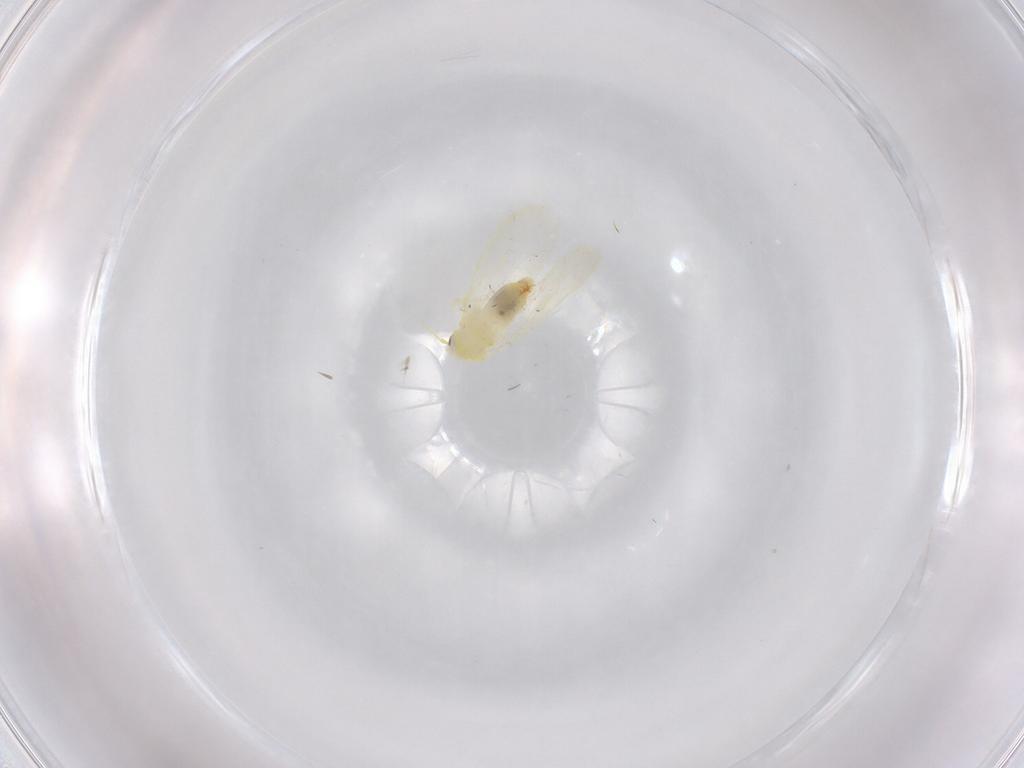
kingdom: Animalia
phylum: Arthropoda
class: Insecta
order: Hemiptera
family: Aleyrodidae
